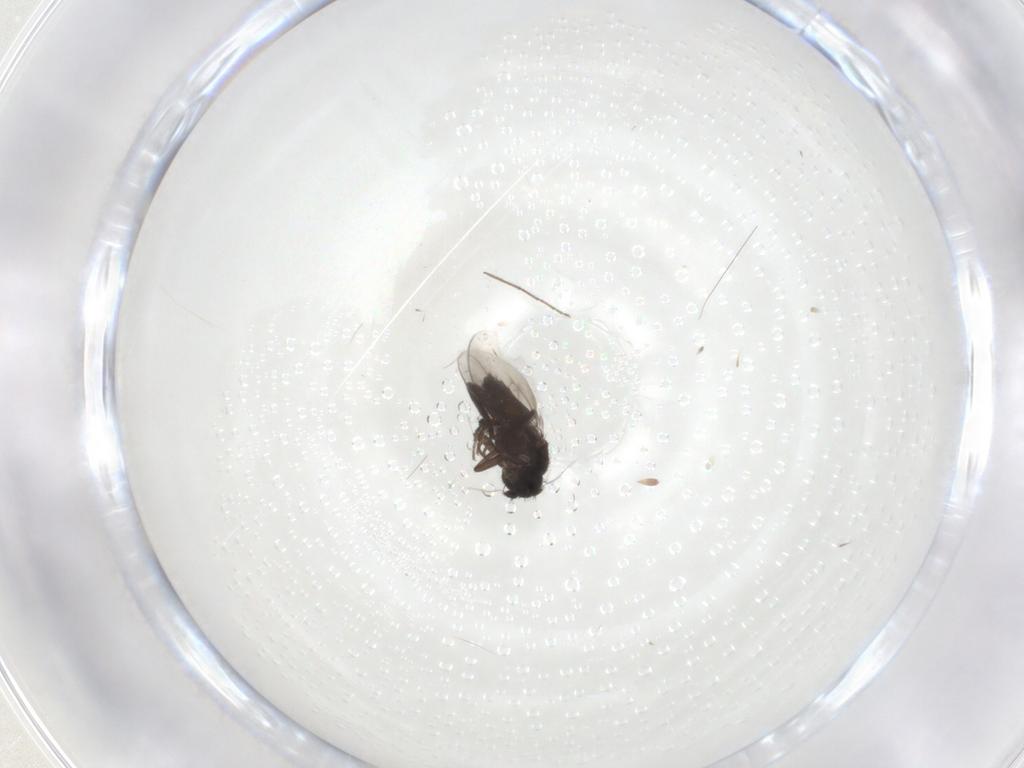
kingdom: Animalia
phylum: Arthropoda
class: Insecta
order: Diptera
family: Chironomidae
